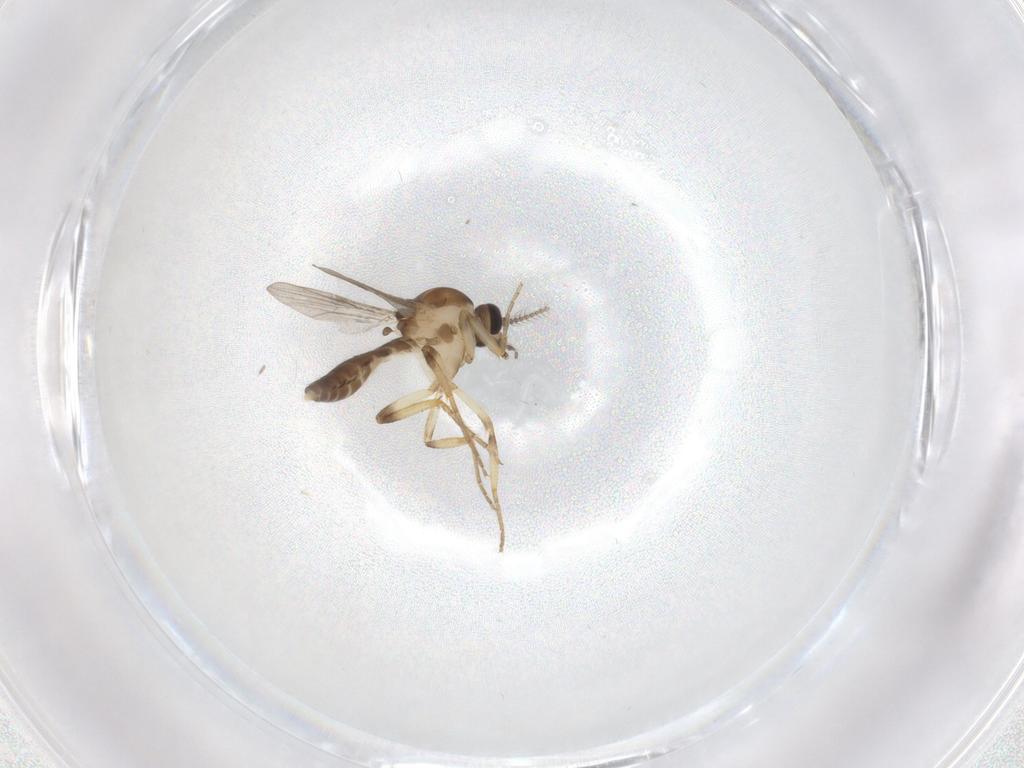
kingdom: Animalia
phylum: Arthropoda
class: Insecta
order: Diptera
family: Ceratopogonidae
